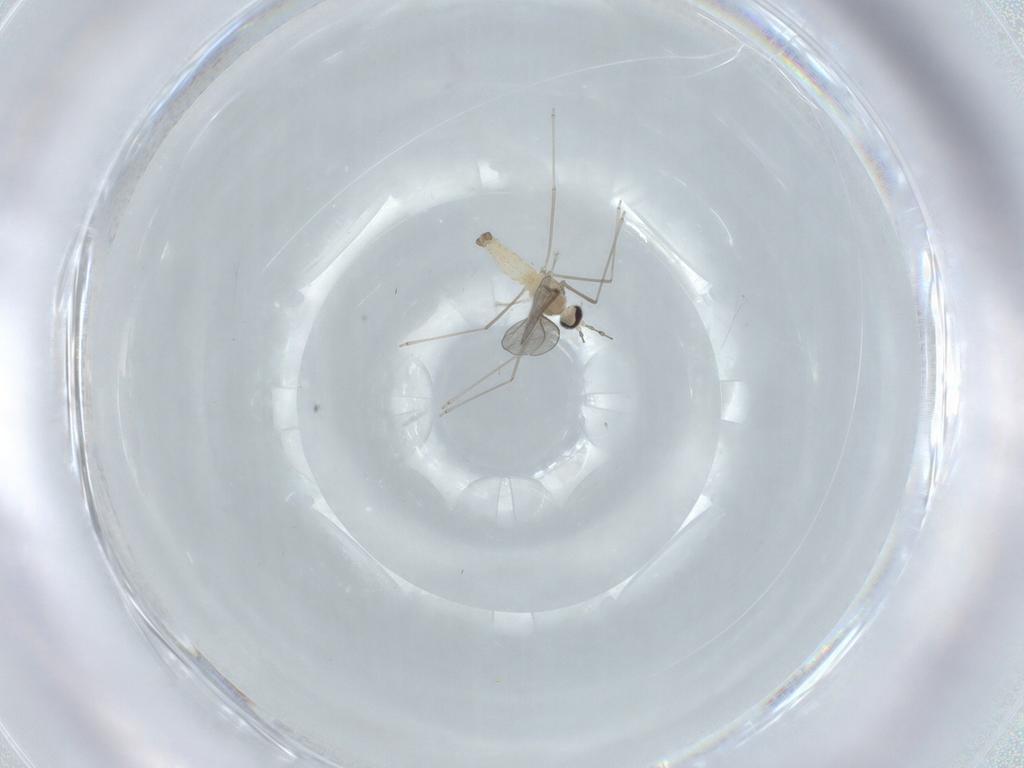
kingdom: Animalia
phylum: Arthropoda
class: Insecta
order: Diptera
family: Cecidomyiidae
